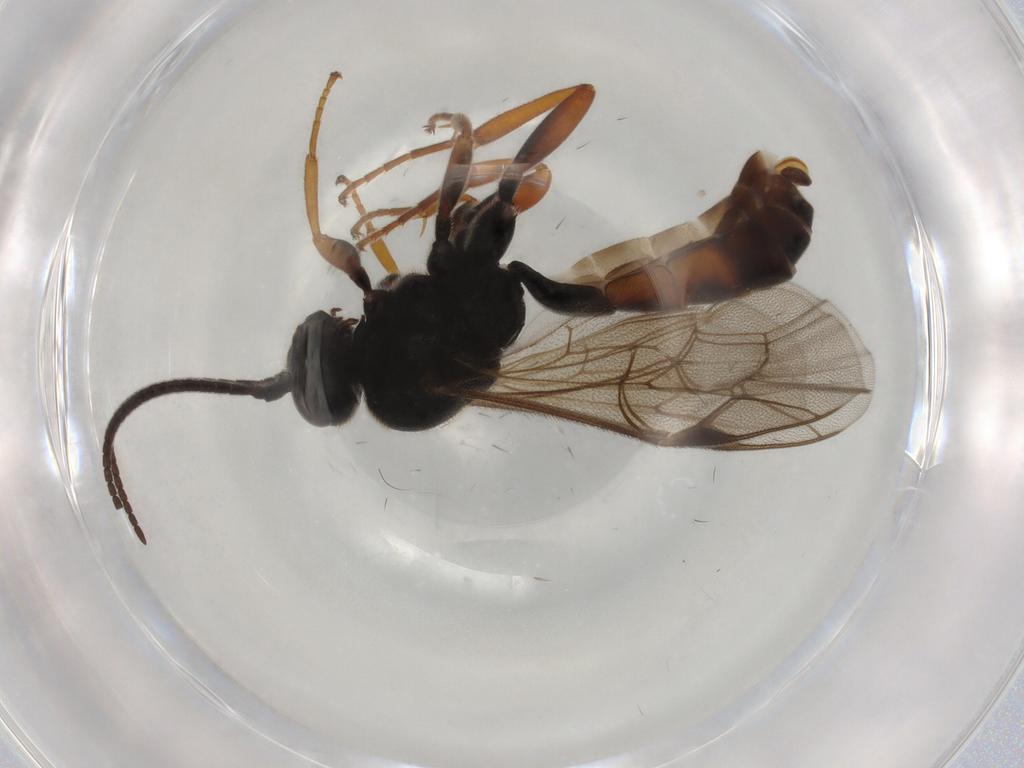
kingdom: Animalia
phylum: Arthropoda
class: Insecta
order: Hymenoptera
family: Ichneumonidae
